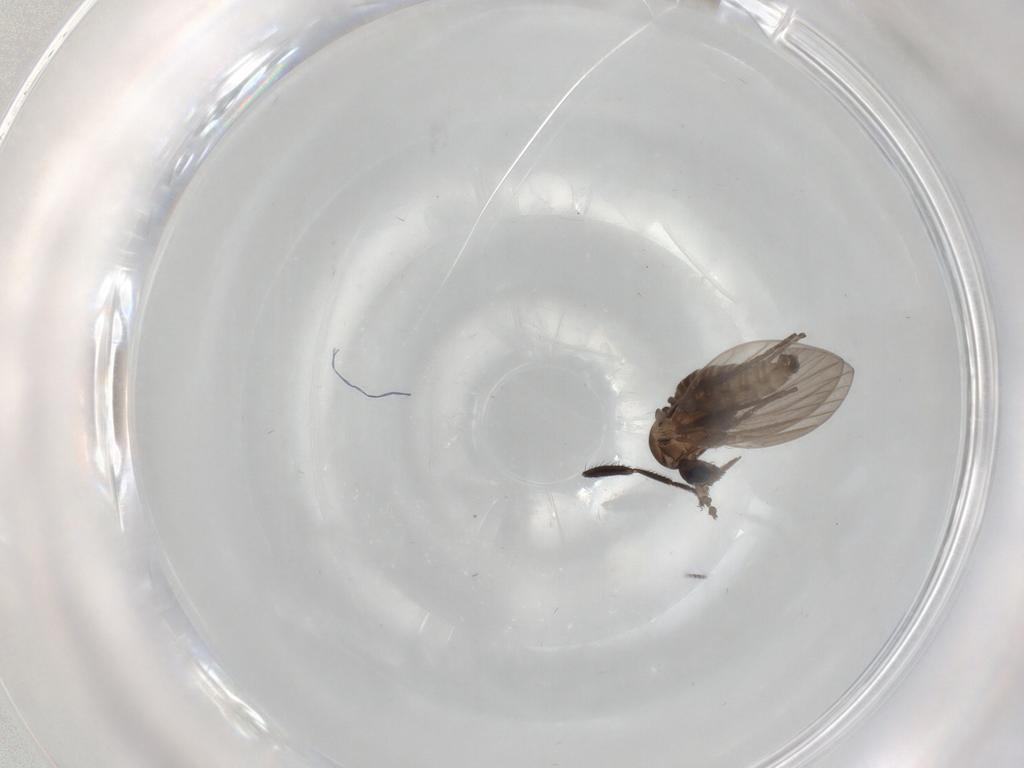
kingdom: Animalia
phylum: Arthropoda
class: Insecta
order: Diptera
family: Psychodidae
